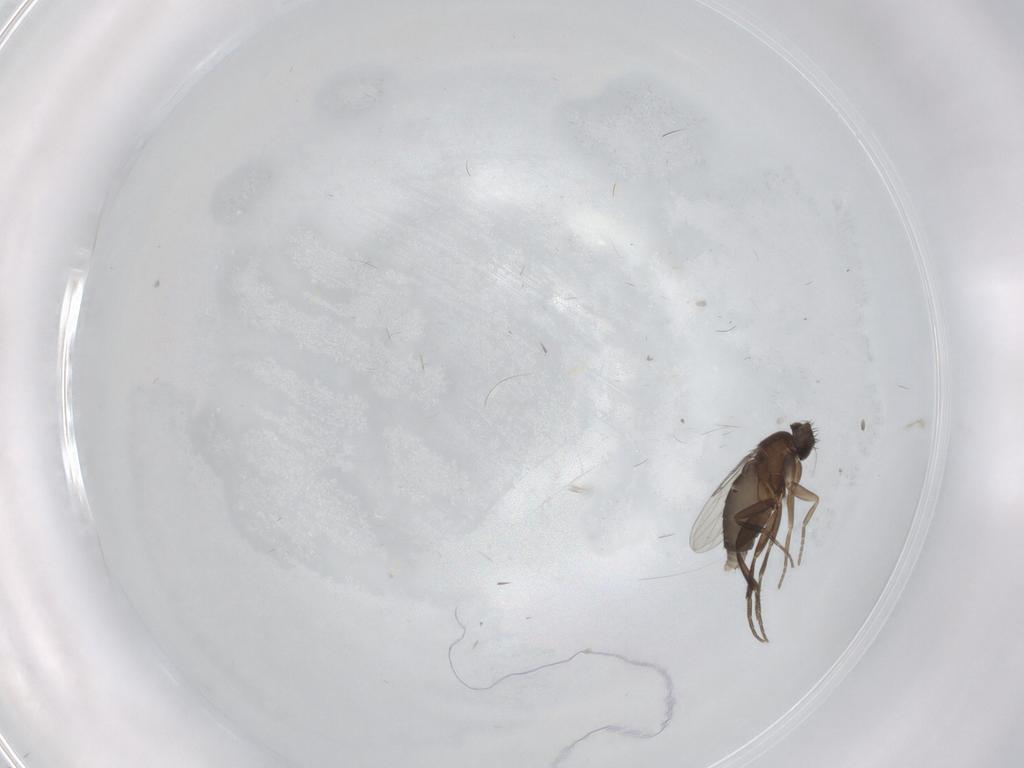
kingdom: Animalia
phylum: Arthropoda
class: Insecta
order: Diptera
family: Phoridae
